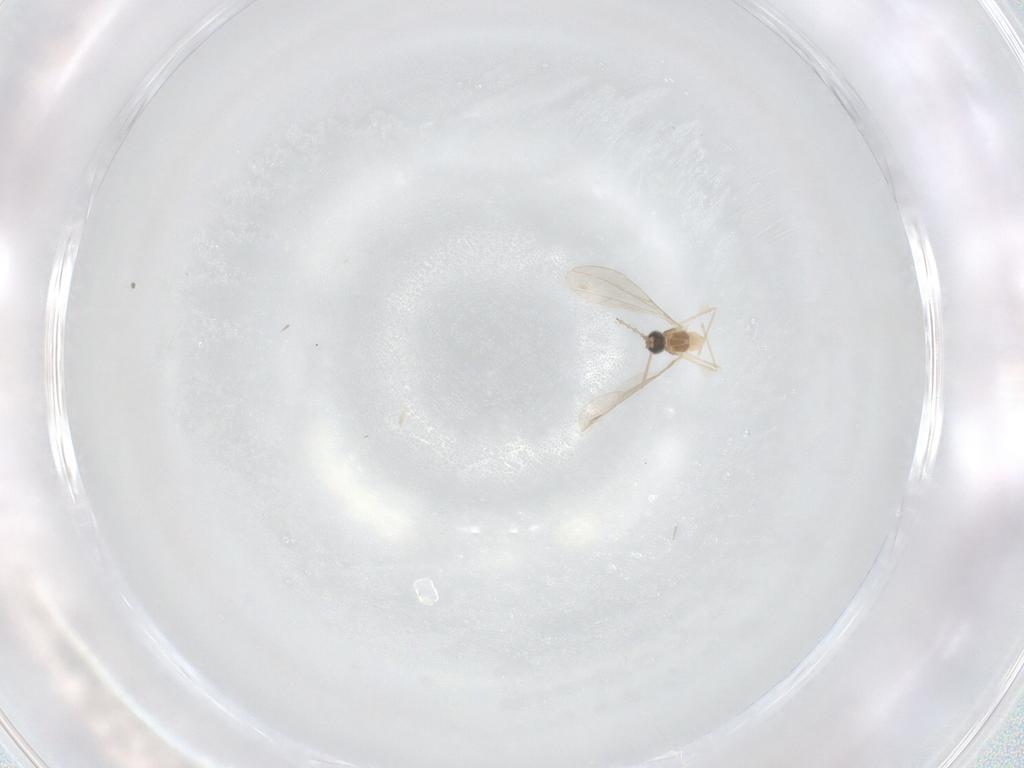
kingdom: Animalia
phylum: Arthropoda
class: Insecta
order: Diptera
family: Cecidomyiidae
